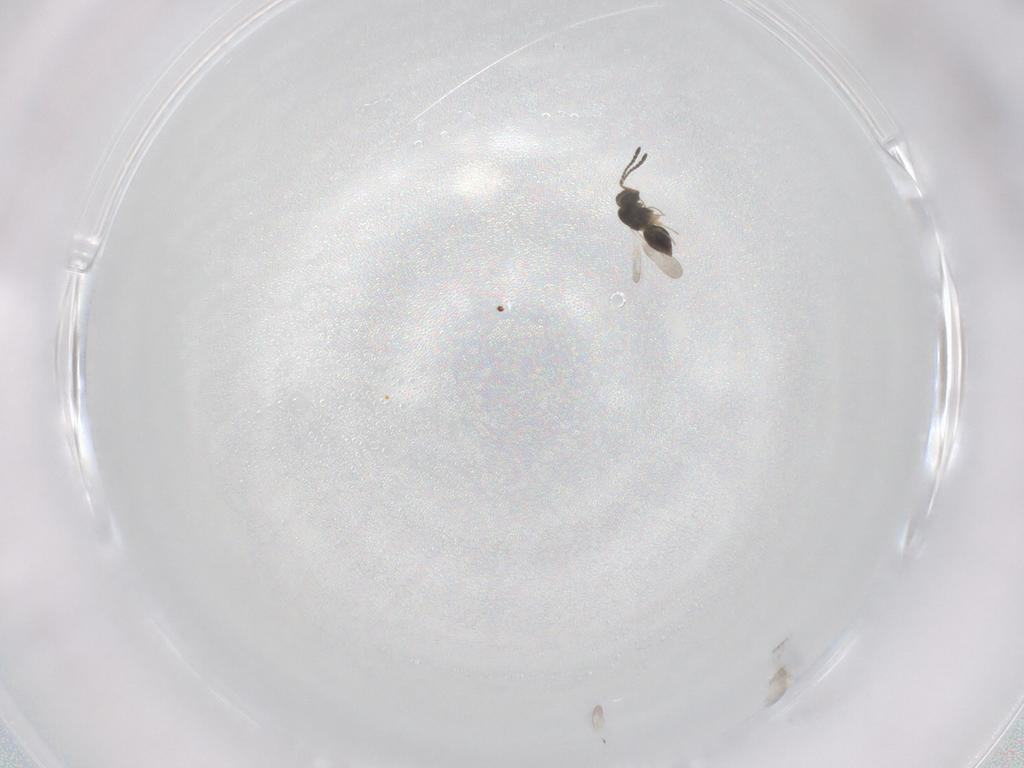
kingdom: Animalia
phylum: Arthropoda
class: Insecta
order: Hymenoptera
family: Platygastridae
